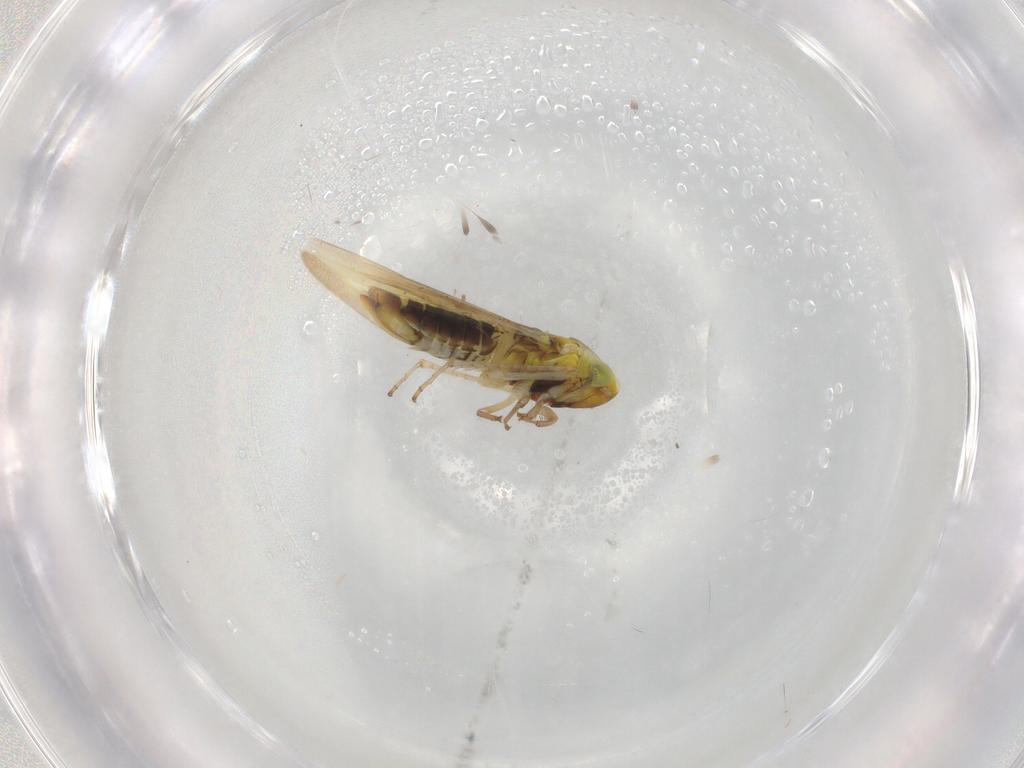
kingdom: Animalia
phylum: Arthropoda
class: Insecta
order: Hemiptera
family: Cicadellidae
